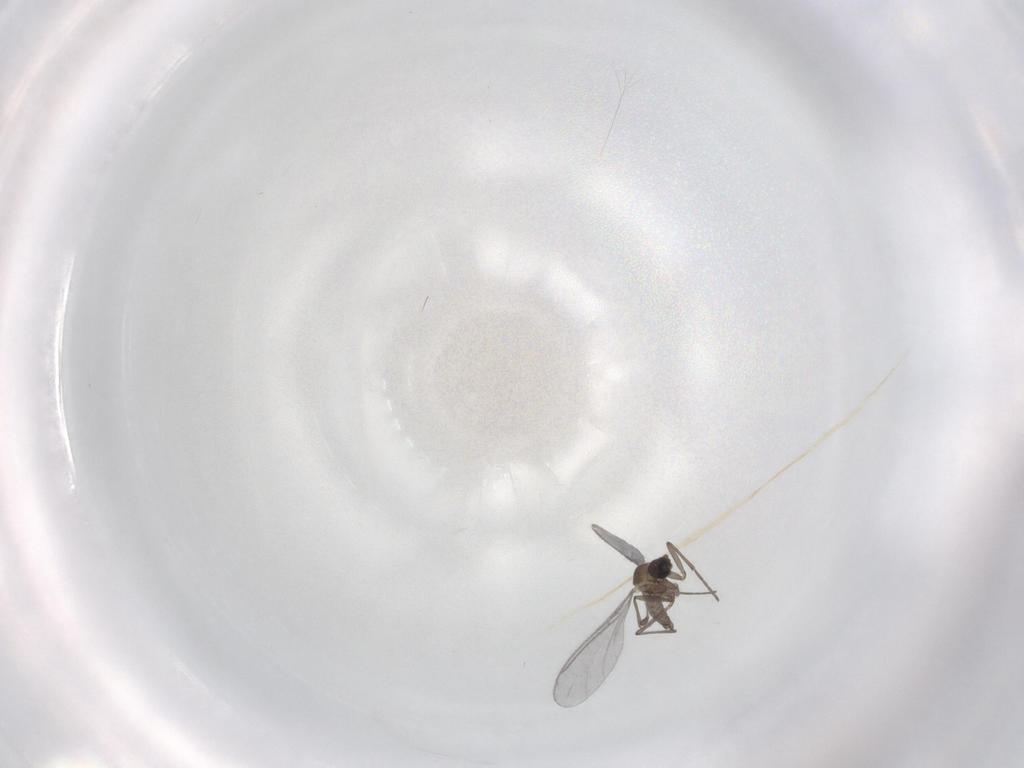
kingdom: Animalia
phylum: Arthropoda
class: Insecta
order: Diptera
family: Sciaridae
